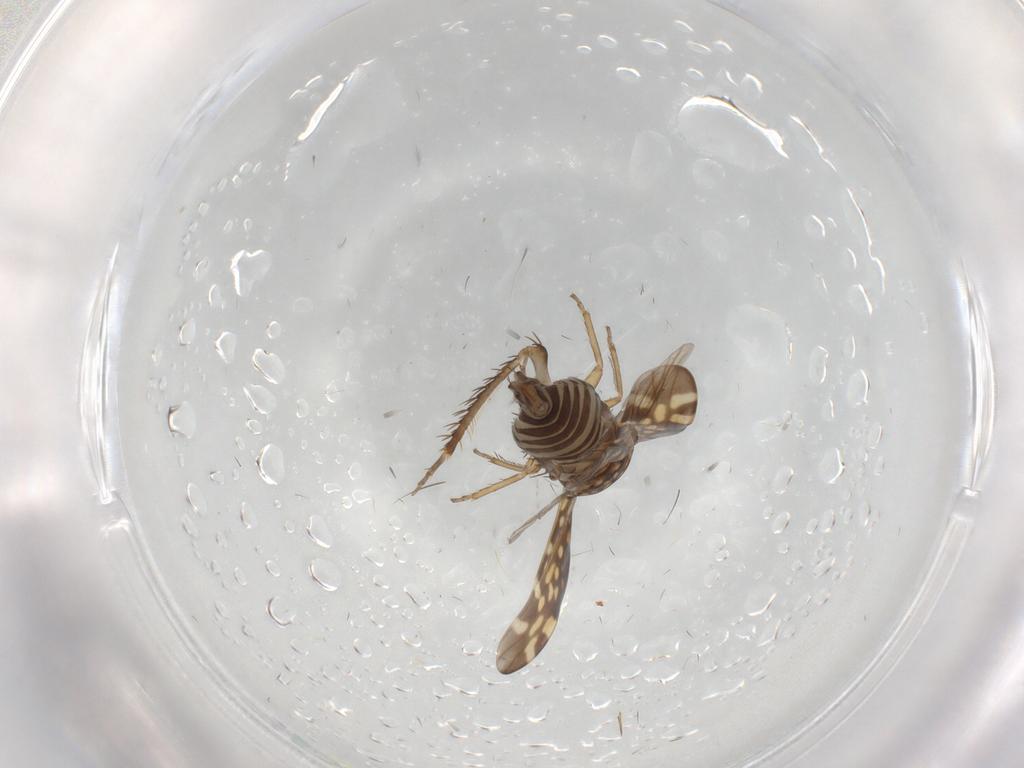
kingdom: Animalia
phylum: Arthropoda
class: Insecta
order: Hemiptera
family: Cicadellidae
